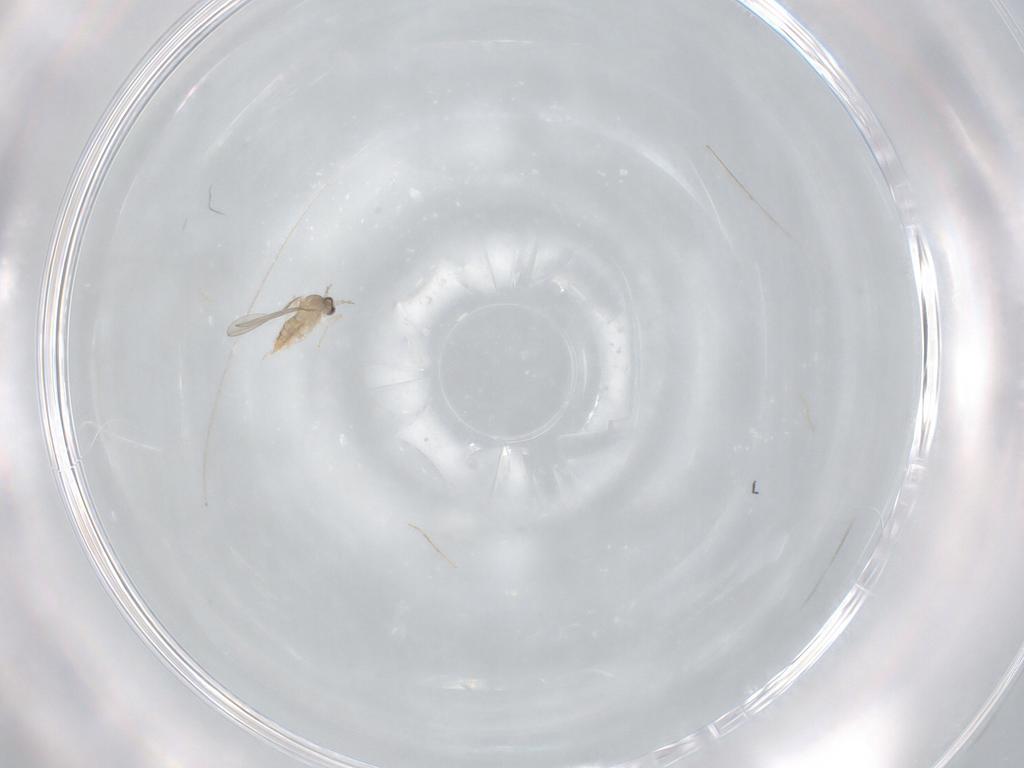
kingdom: Animalia
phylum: Arthropoda
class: Insecta
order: Diptera
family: Cecidomyiidae
